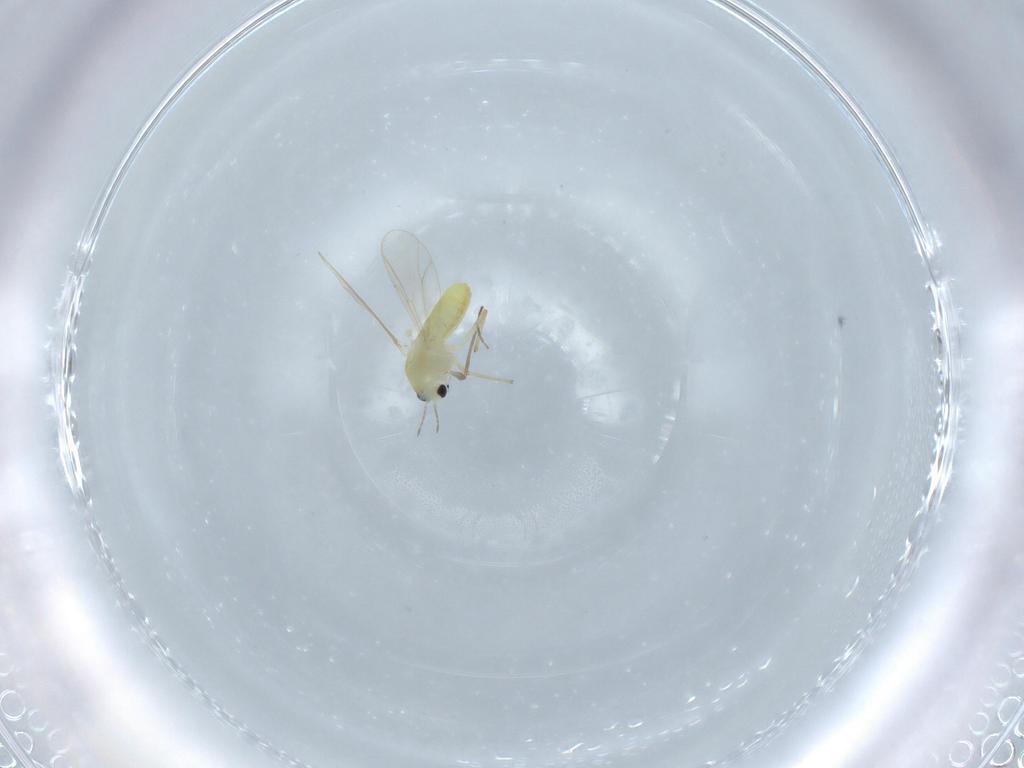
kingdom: Animalia
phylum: Arthropoda
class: Insecta
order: Diptera
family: Chironomidae
